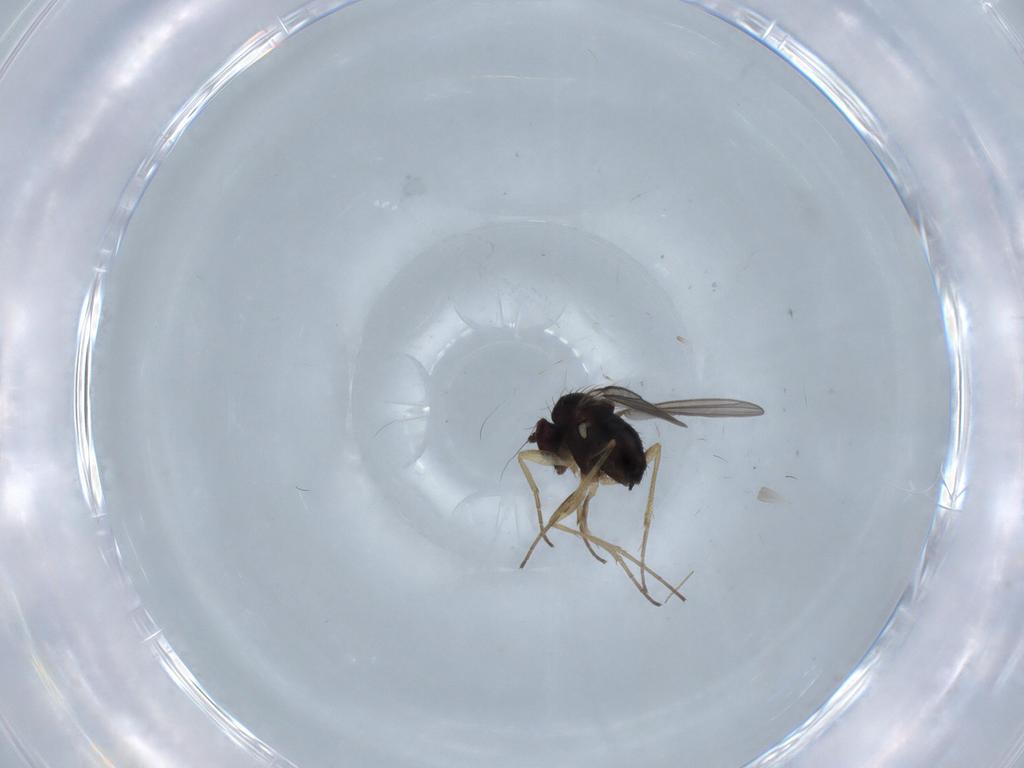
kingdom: Animalia
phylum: Arthropoda
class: Insecta
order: Diptera
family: Dolichopodidae
